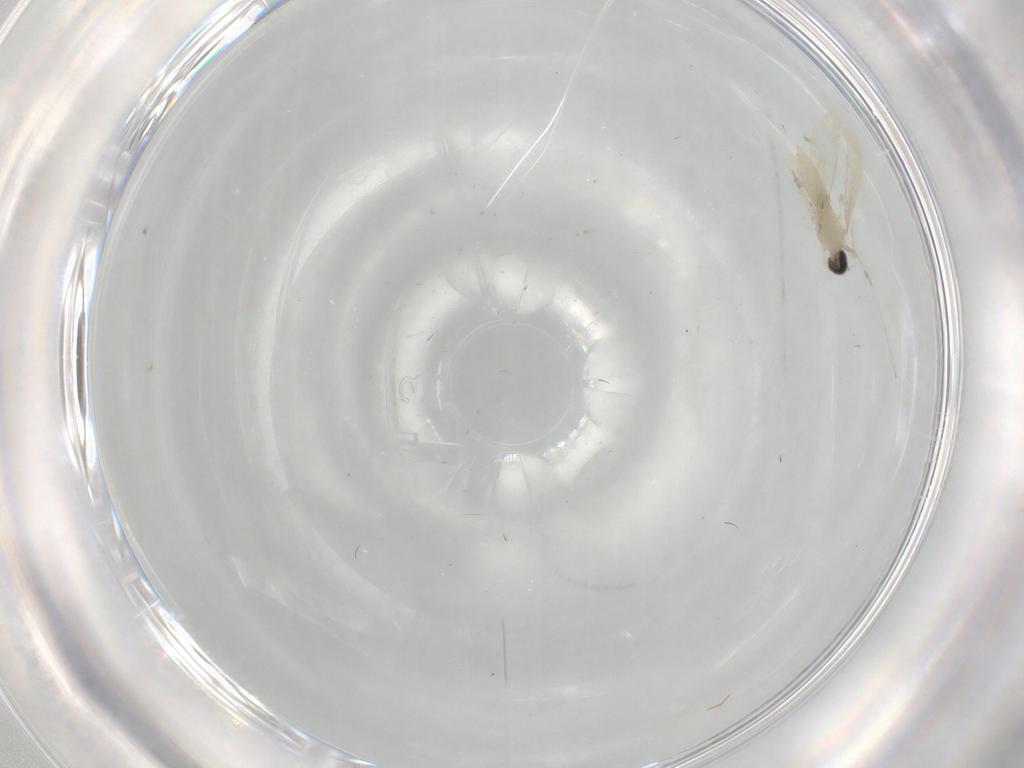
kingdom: Animalia
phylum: Arthropoda
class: Insecta
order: Diptera
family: Cecidomyiidae
